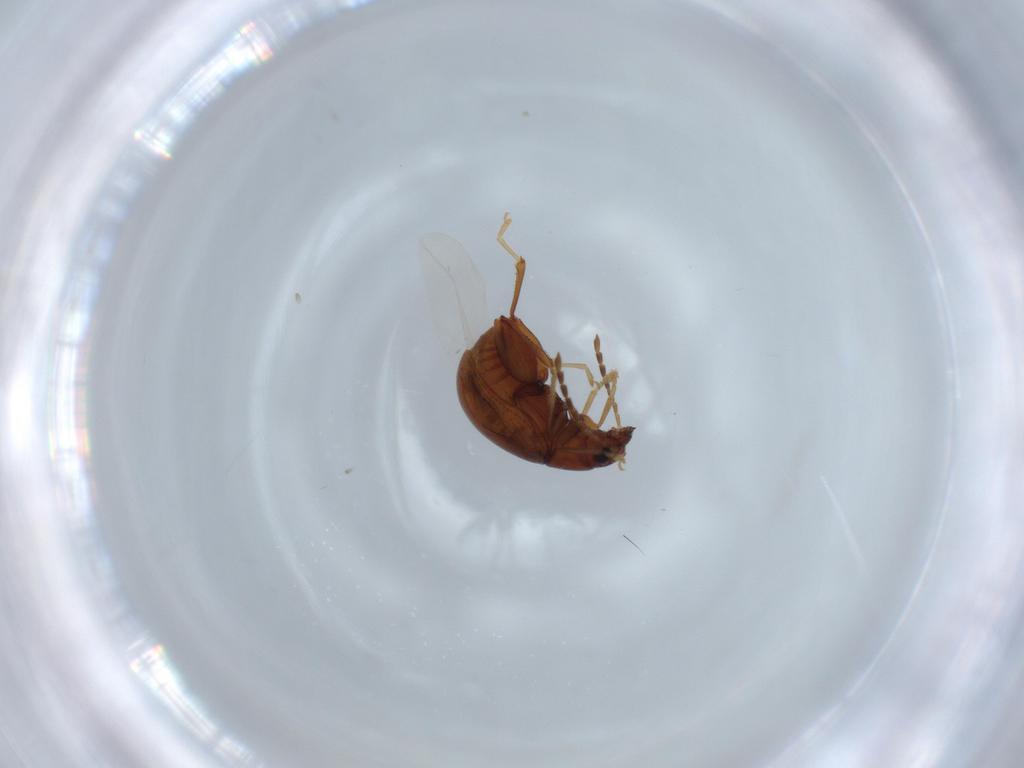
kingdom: Animalia
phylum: Arthropoda
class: Insecta
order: Coleoptera
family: Chrysomelidae
